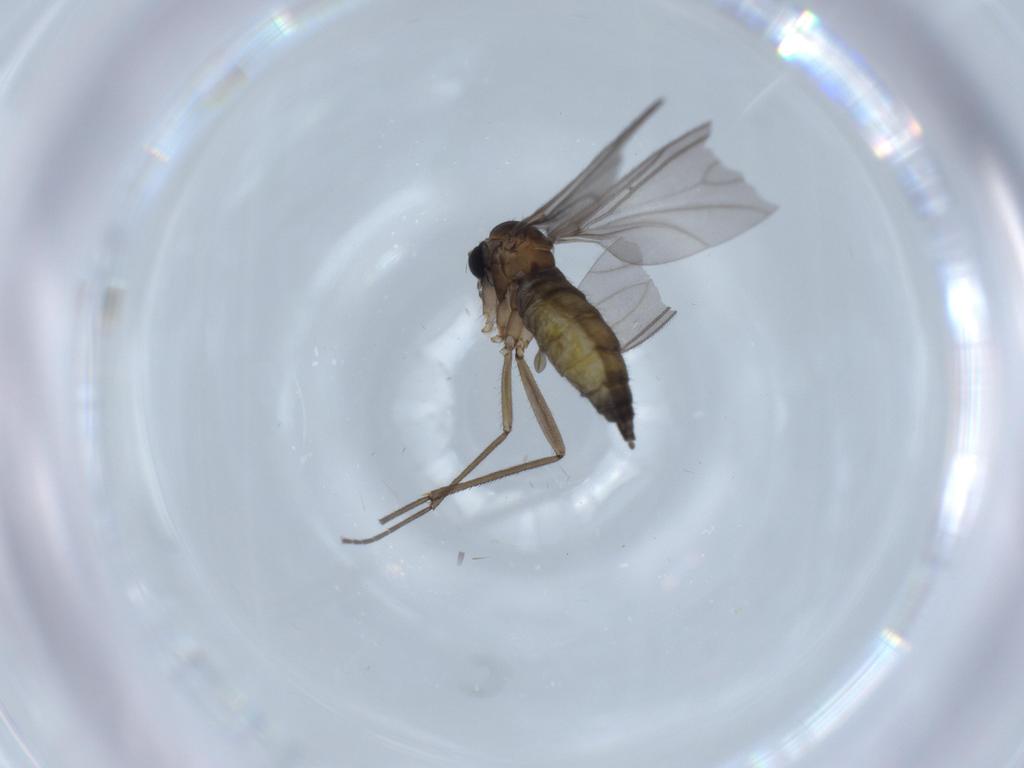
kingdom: Animalia
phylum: Arthropoda
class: Insecta
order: Diptera
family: Sciaridae
